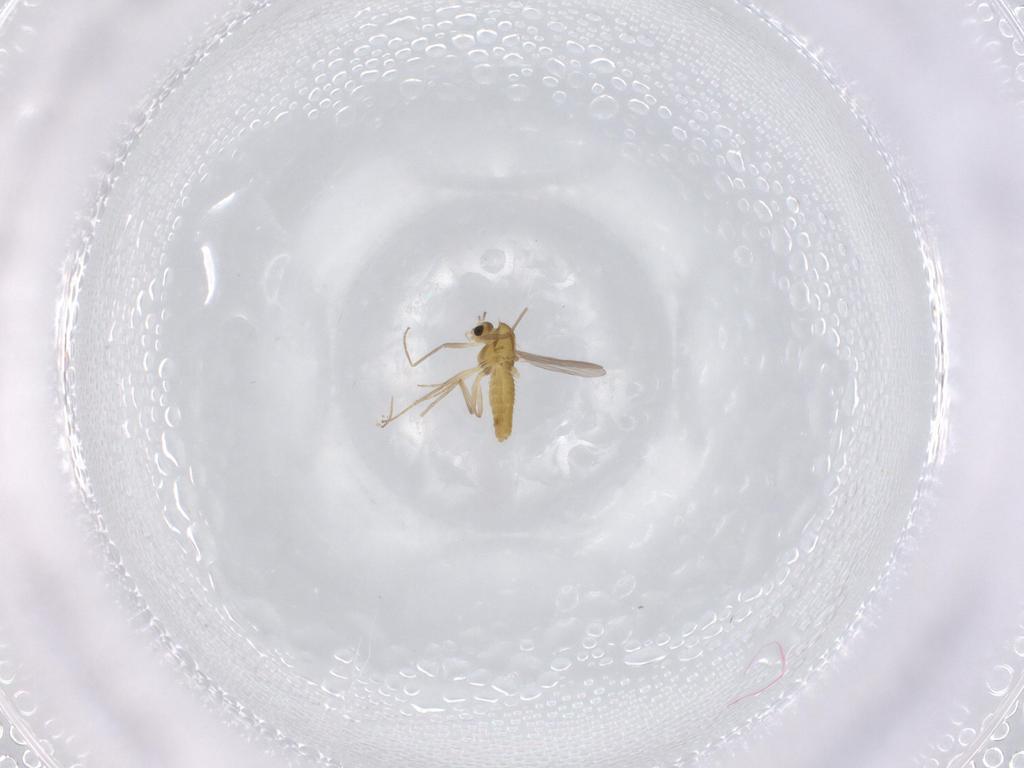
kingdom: Animalia
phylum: Arthropoda
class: Insecta
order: Diptera
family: Chironomidae
